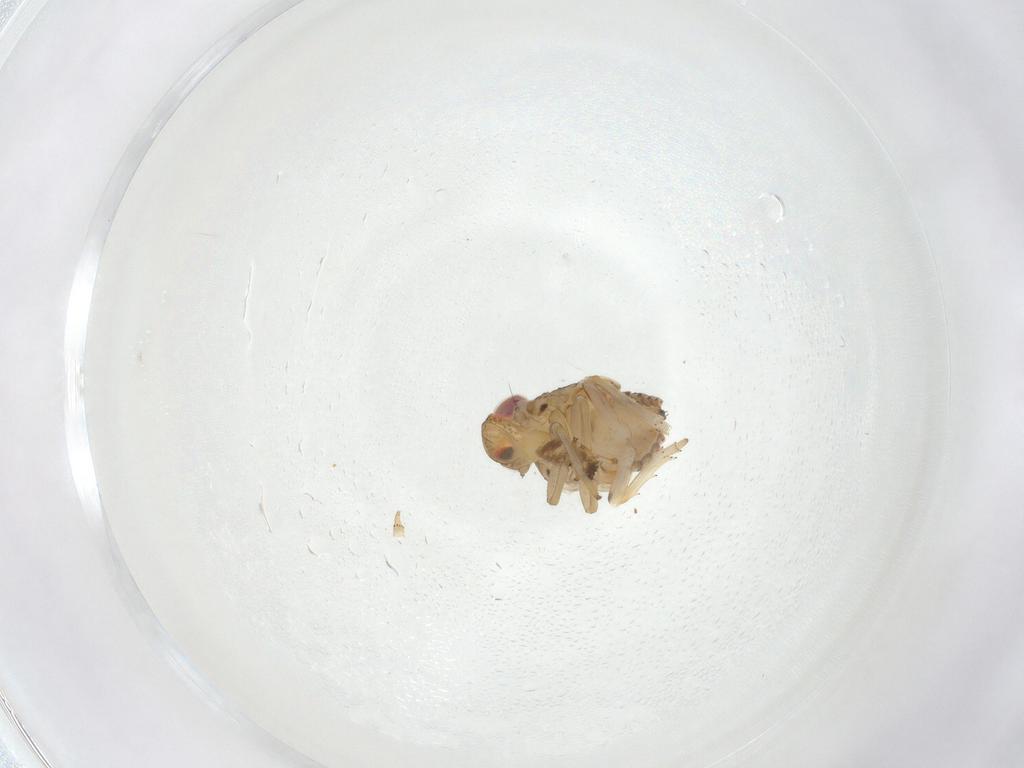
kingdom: Animalia
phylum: Arthropoda
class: Insecta
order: Hemiptera
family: Issidae
